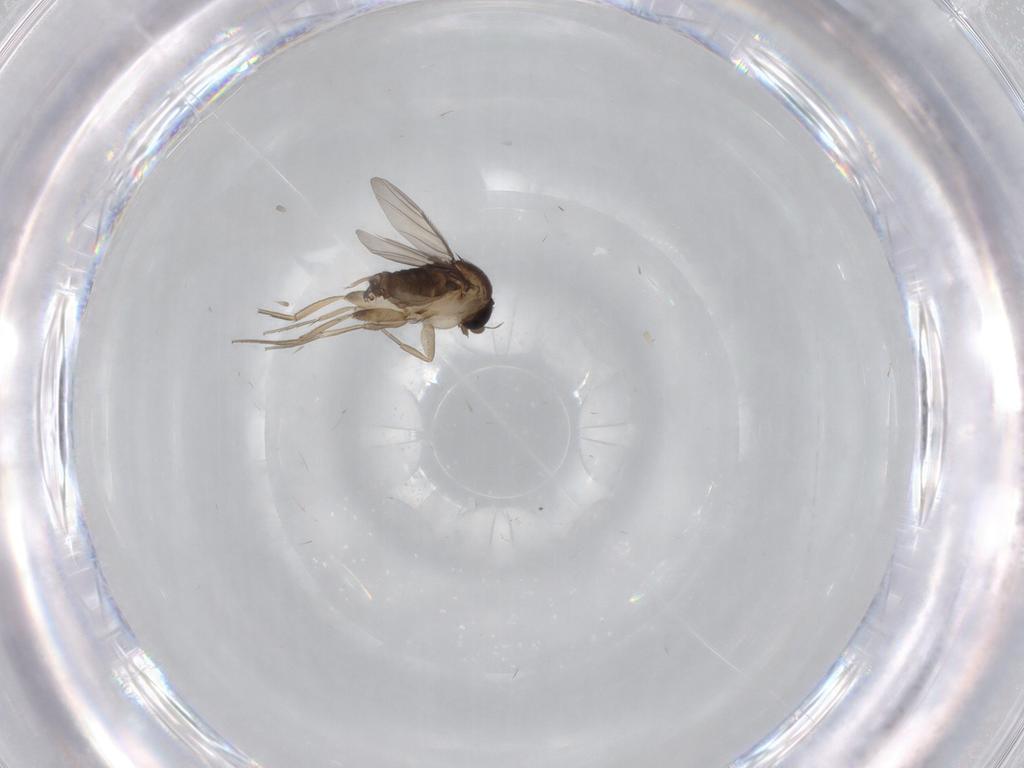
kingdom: Animalia
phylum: Arthropoda
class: Insecta
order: Diptera
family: Phoridae
